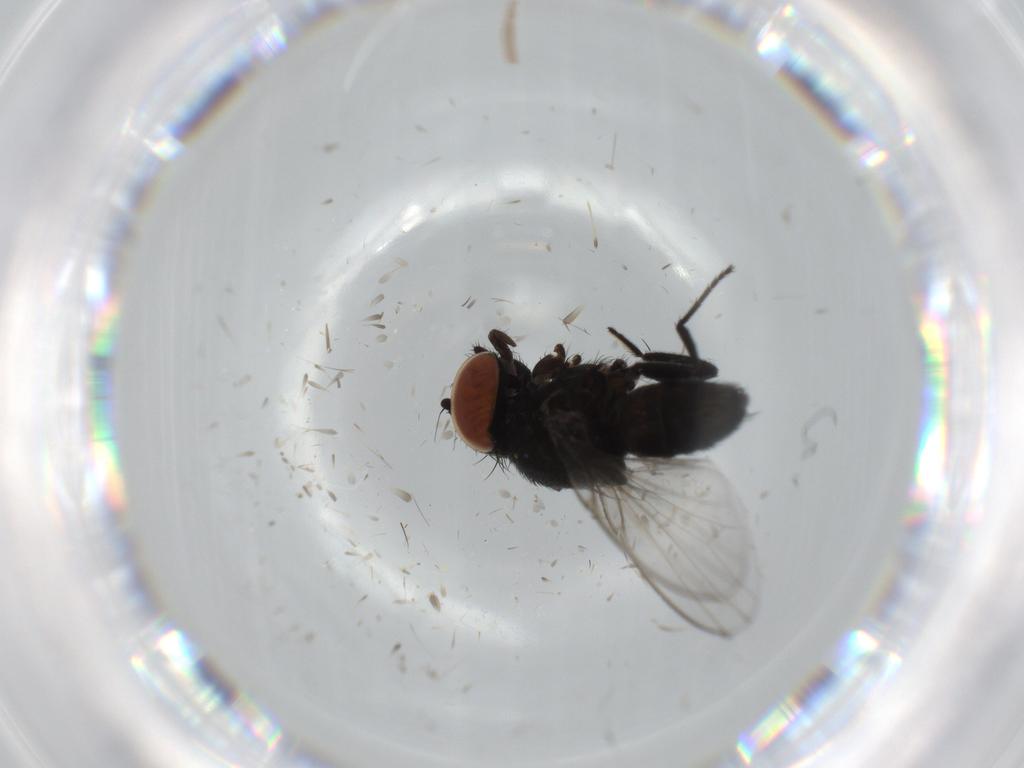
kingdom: Animalia
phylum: Arthropoda
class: Insecta
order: Diptera
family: Milichiidae
